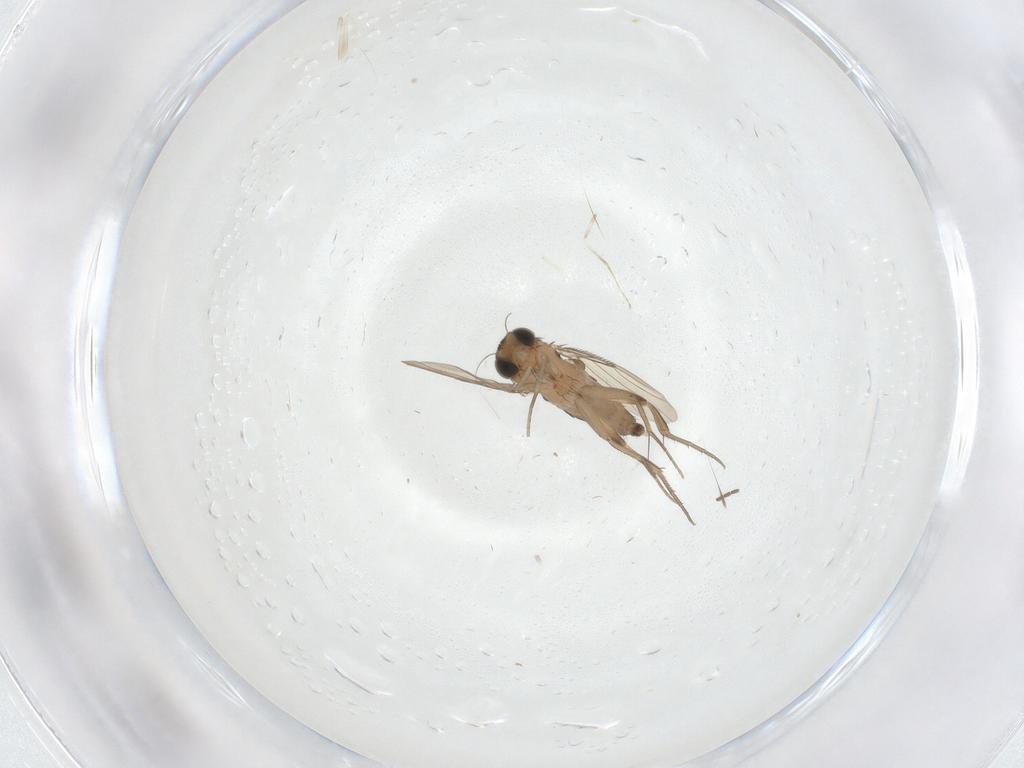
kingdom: Animalia
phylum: Arthropoda
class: Insecta
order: Diptera
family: Phoridae
